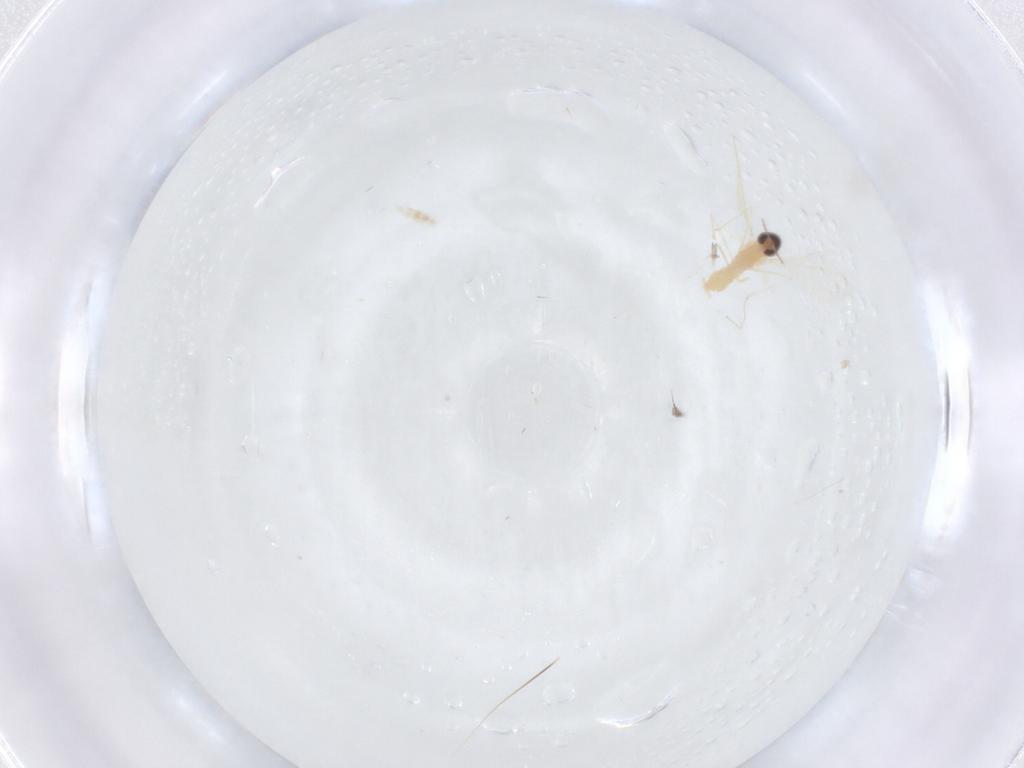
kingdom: Animalia
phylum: Arthropoda
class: Insecta
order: Diptera
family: Cecidomyiidae
